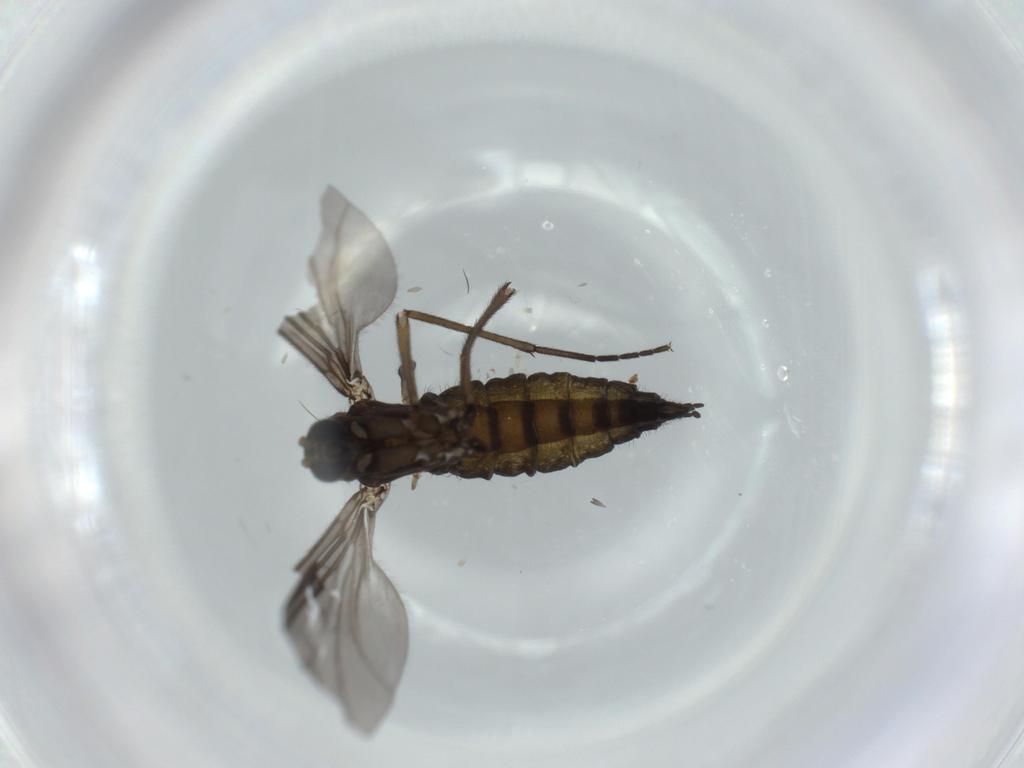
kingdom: Animalia
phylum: Arthropoda
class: Insecta
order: Diptera
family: Sciaridae
